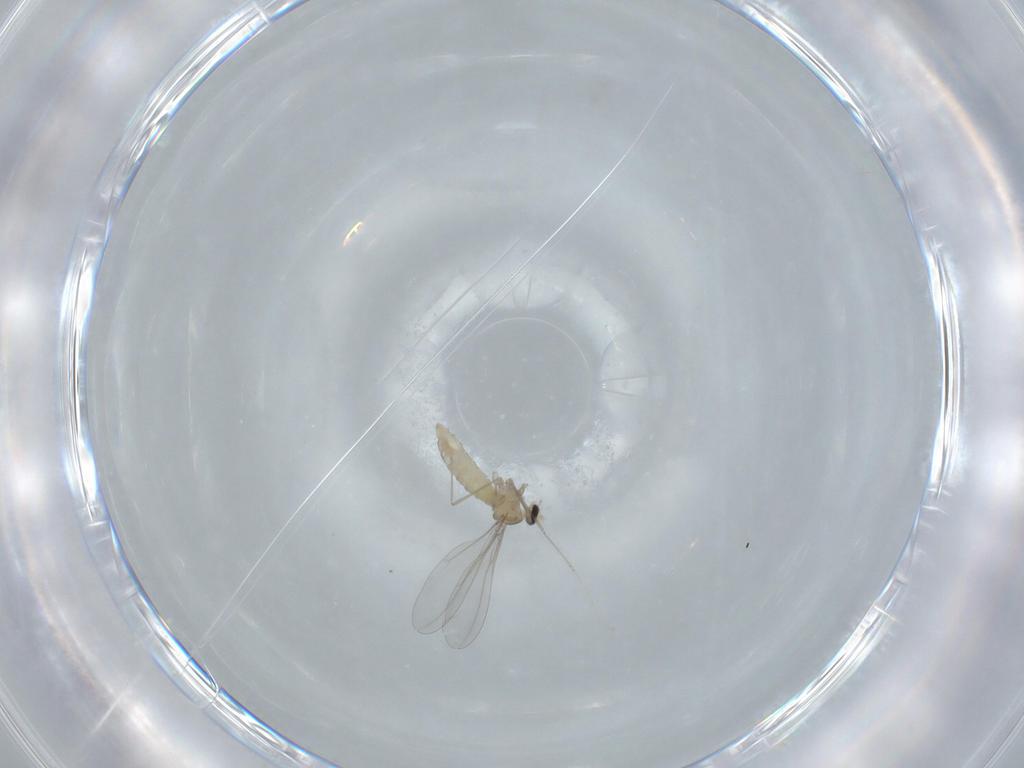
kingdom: Animalia
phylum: Arthropoda
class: Insecta
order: Diptera
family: Cecidomyiidae
